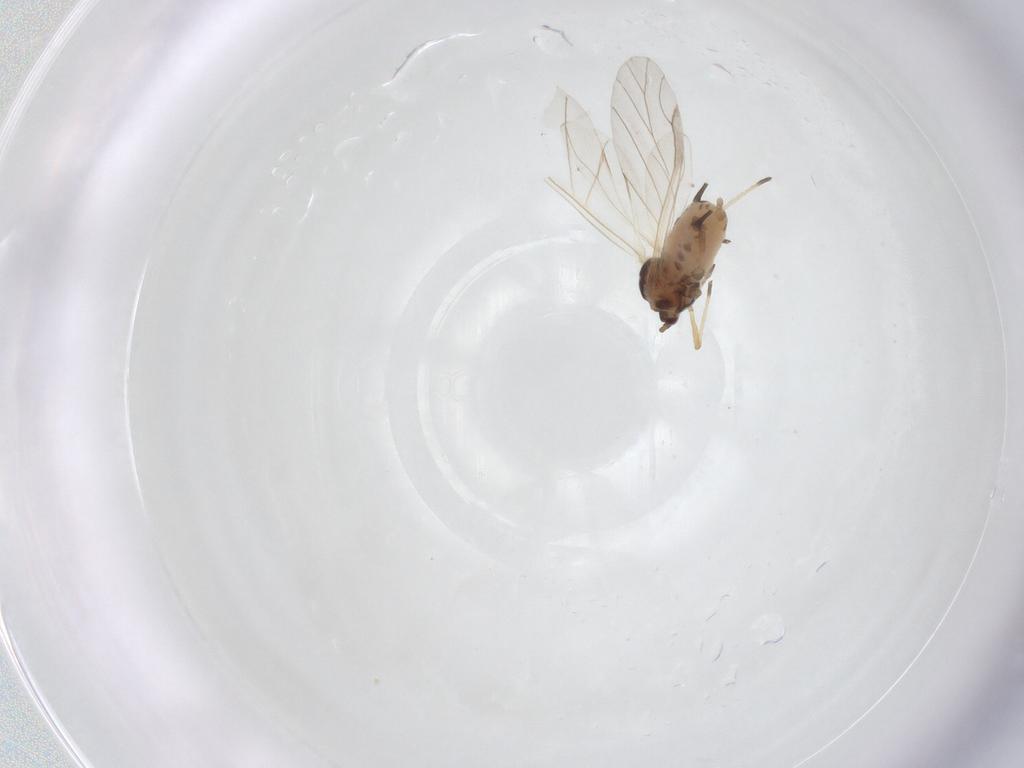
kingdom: Animalia
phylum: Arthropoda
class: Insecta
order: Hemiptera
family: Aphididae
